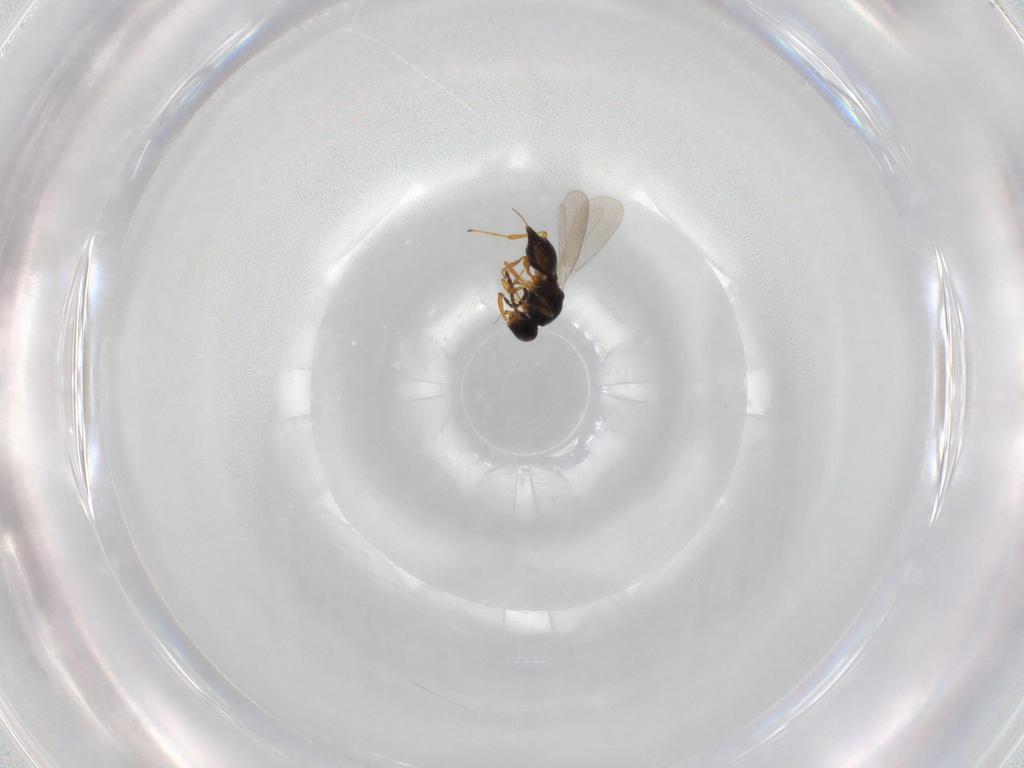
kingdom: Animalia
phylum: Arthropoda
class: Insecta
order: Diptera
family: Mythicomyiidae
